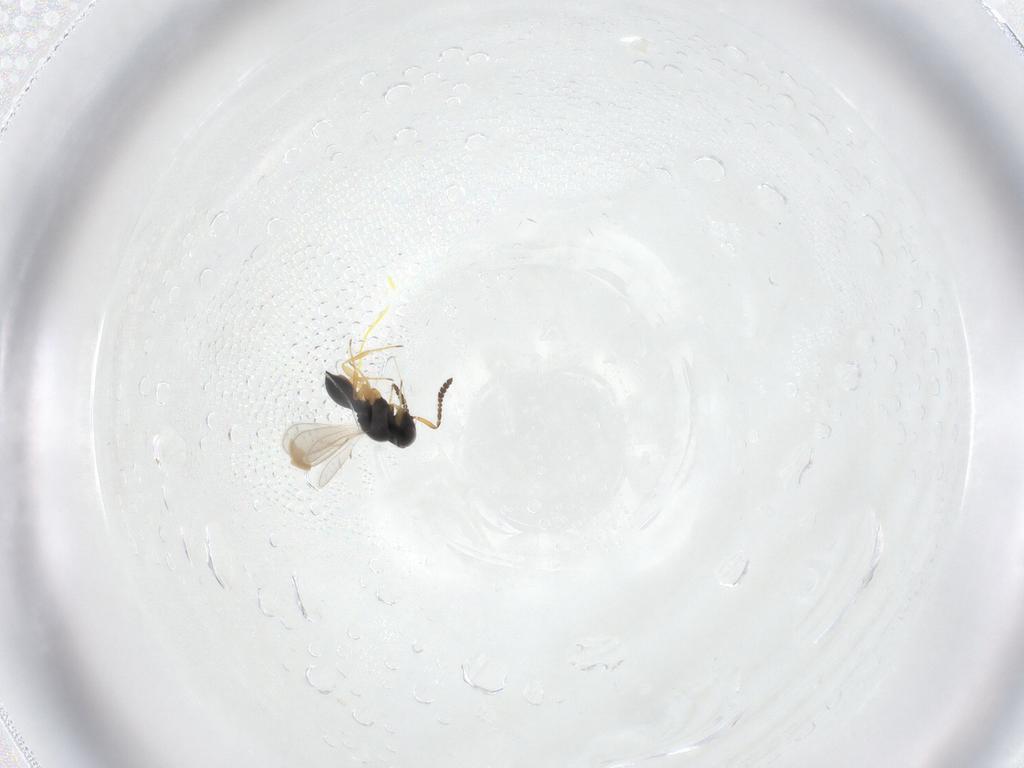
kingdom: Animalia
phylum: Arthropoda
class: Insecta
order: Hymenoptera
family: Scelionidae
